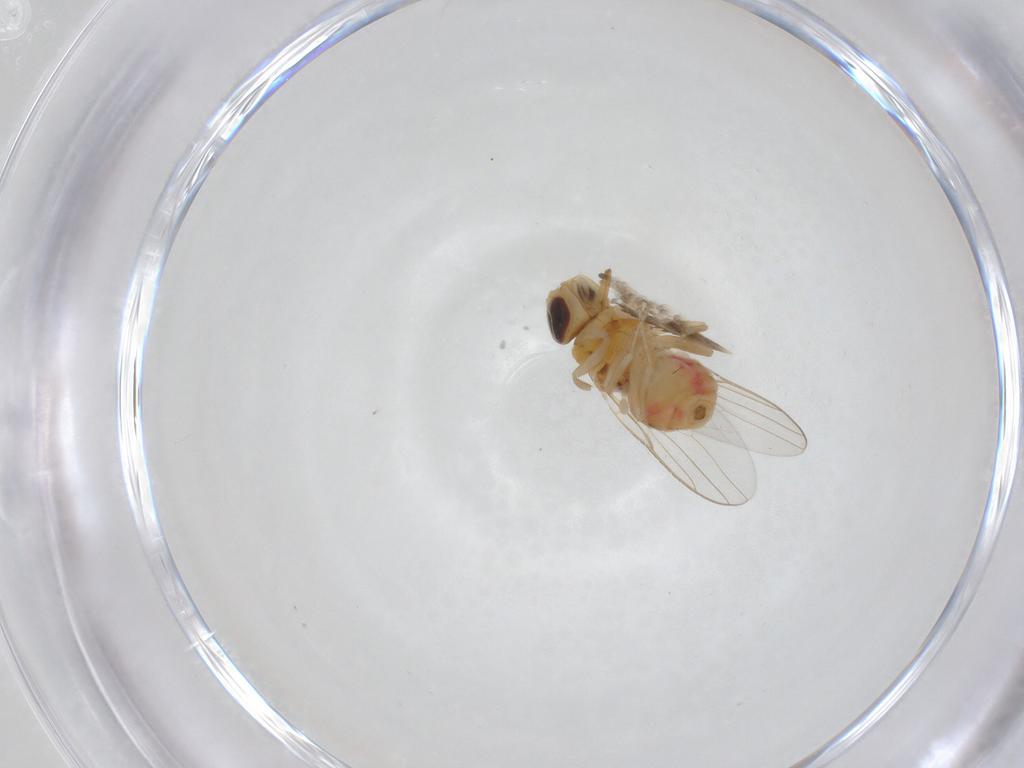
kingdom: Animalia
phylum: Arthropoda
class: Insecta
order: Diptera
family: Chloropidae
